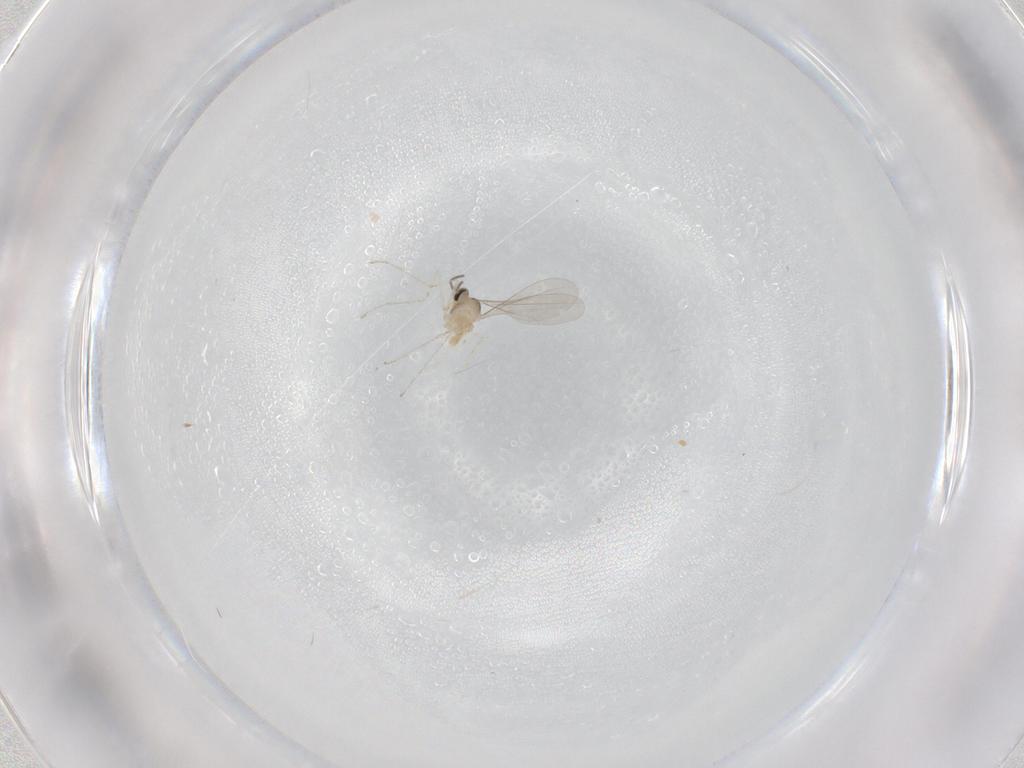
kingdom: Animalia
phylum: Arthropoda
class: Insecta
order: Diptera
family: Cecidomyiidae
